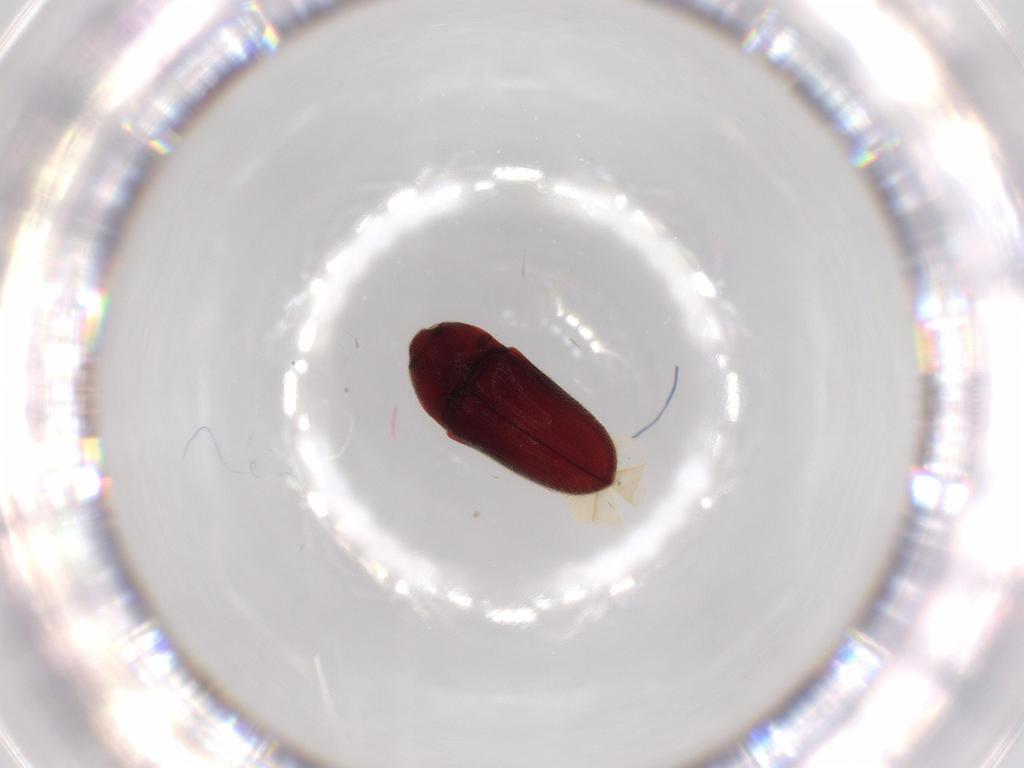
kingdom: Animalia
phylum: Arthropoda
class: Insecta
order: Coleoptera
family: Throscidae
